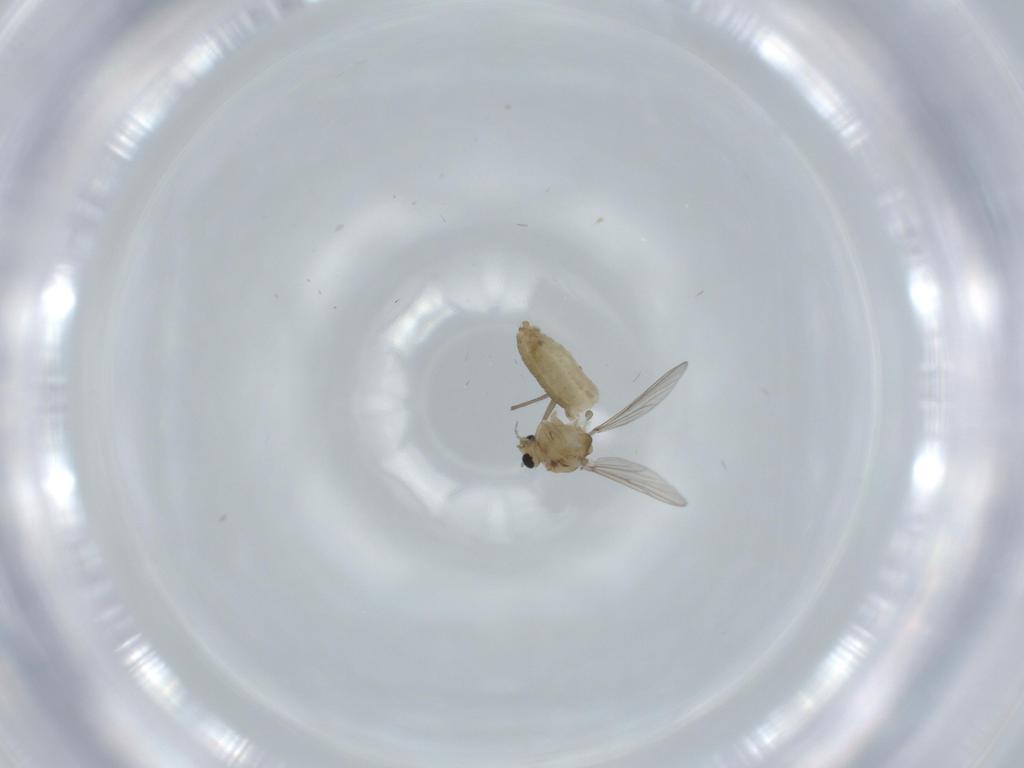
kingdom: Animalia
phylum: Arthropoda
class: Insecta
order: Diptera
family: Chironomidae
